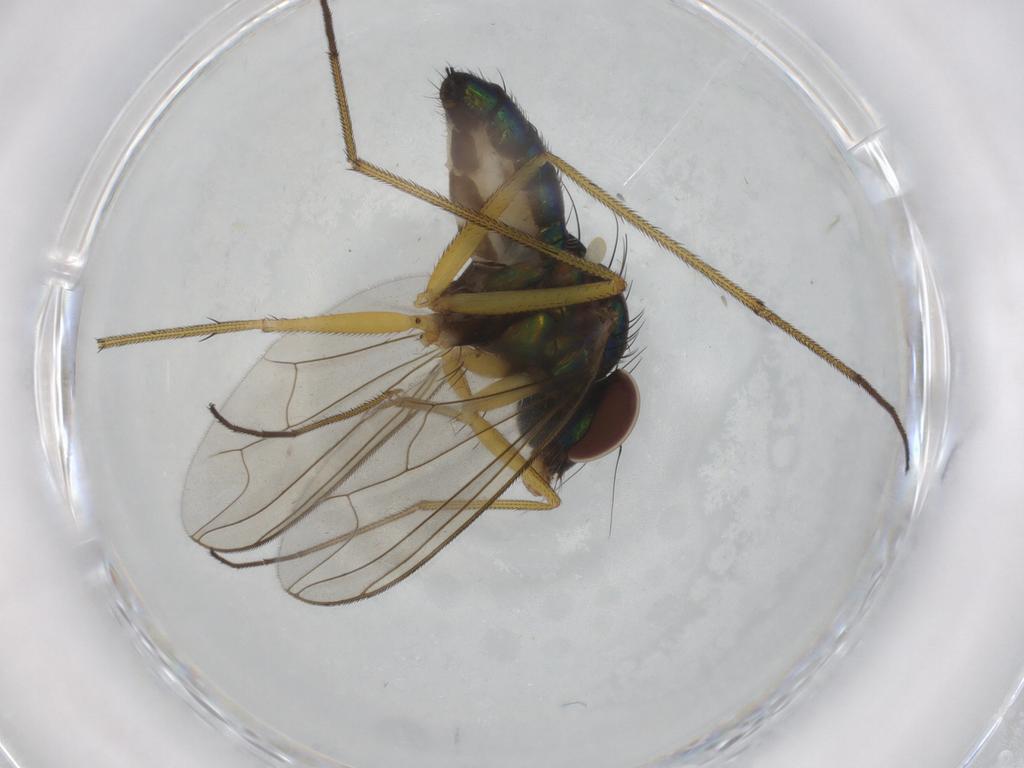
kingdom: Animalia
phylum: Arthropoda
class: Insecta
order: Diptera
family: Dolichopodidae
